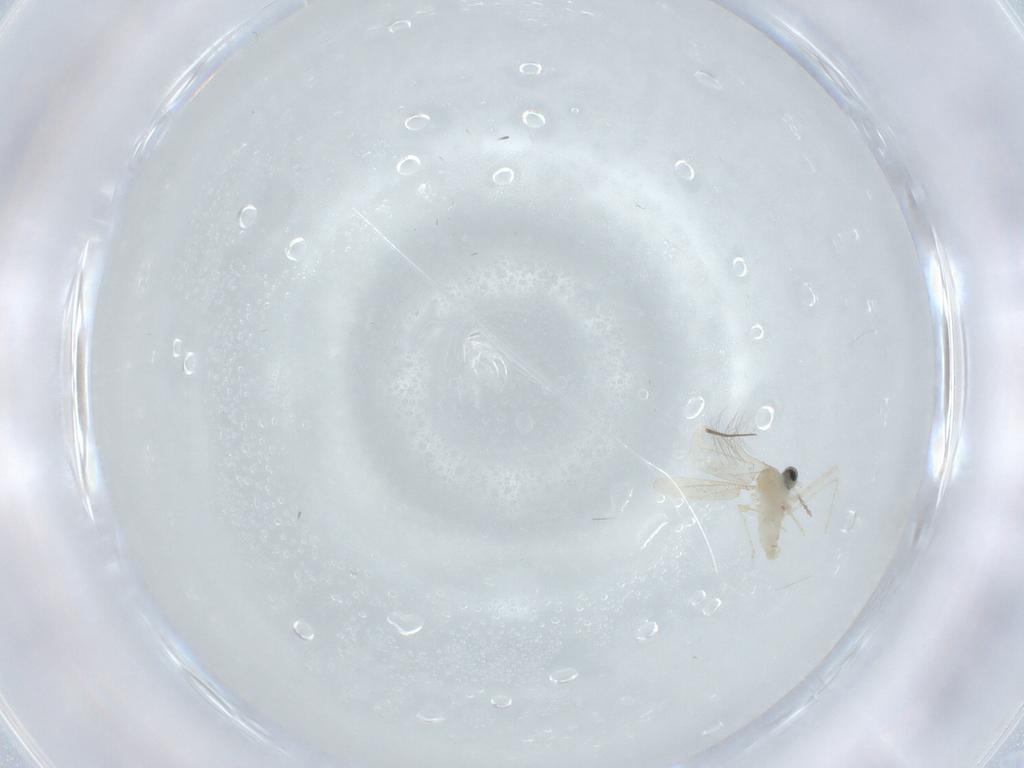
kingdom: Animalia
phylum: Arthropoda
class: Insecta
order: Diptera
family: Cecidomyiidae
